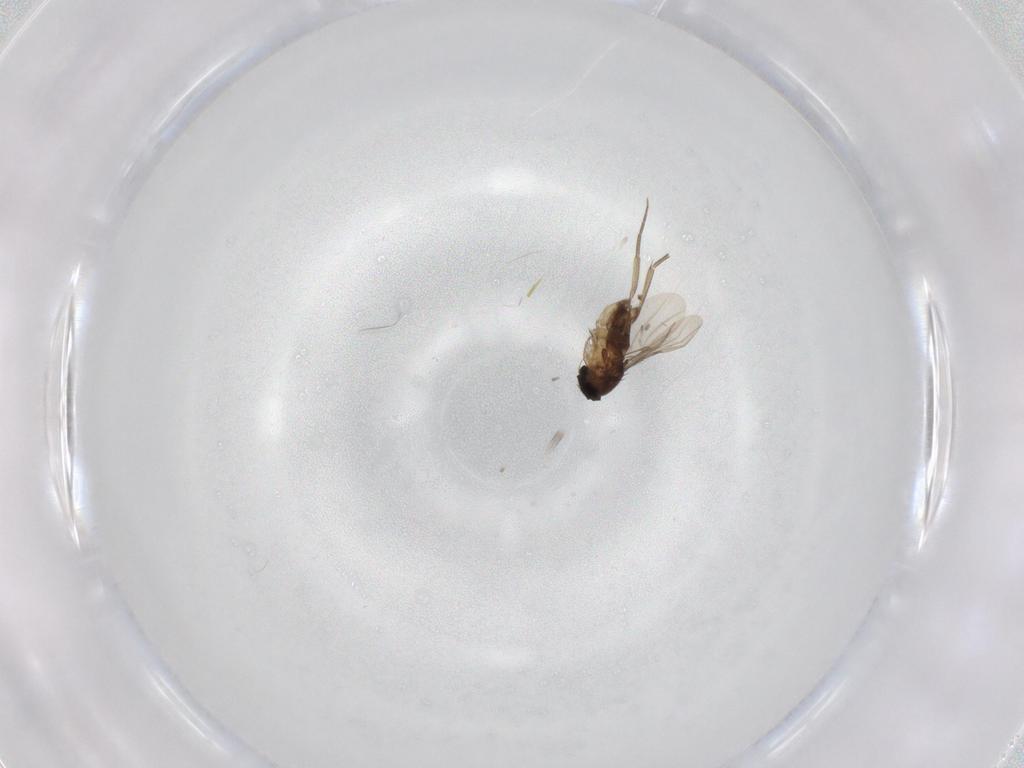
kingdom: Animalia
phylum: Arthropoda
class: Insecta
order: Diptera
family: Phoridae
